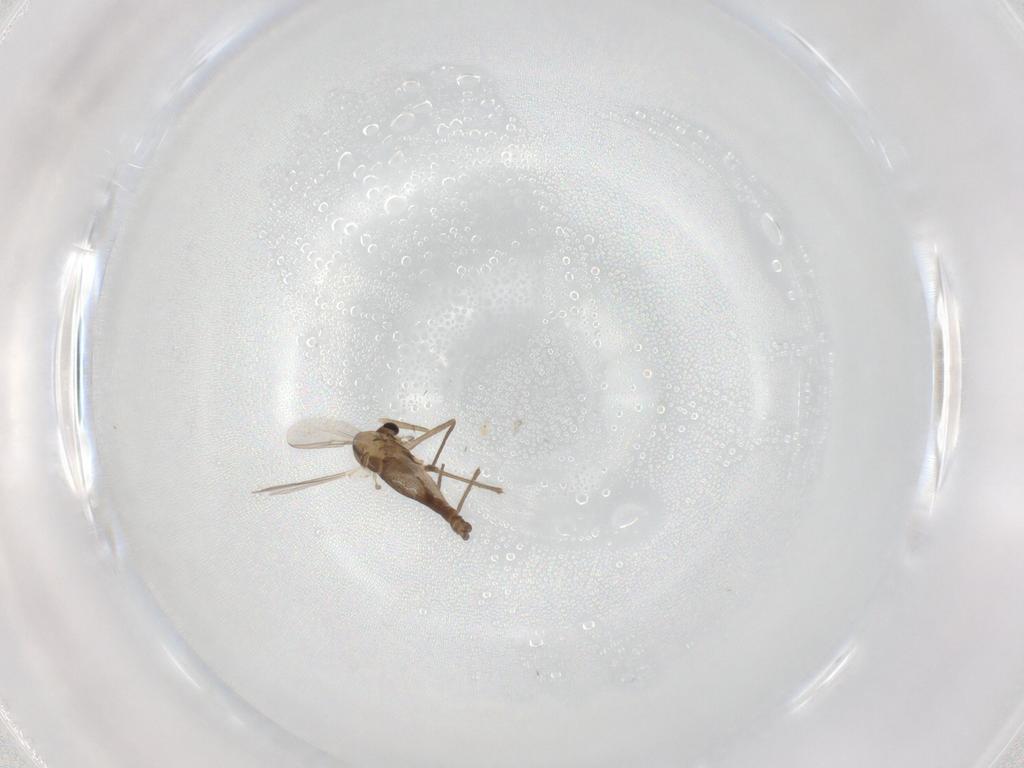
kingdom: Animalia
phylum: Arthropoda
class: Insecta
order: Diptera
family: Chironomidae
